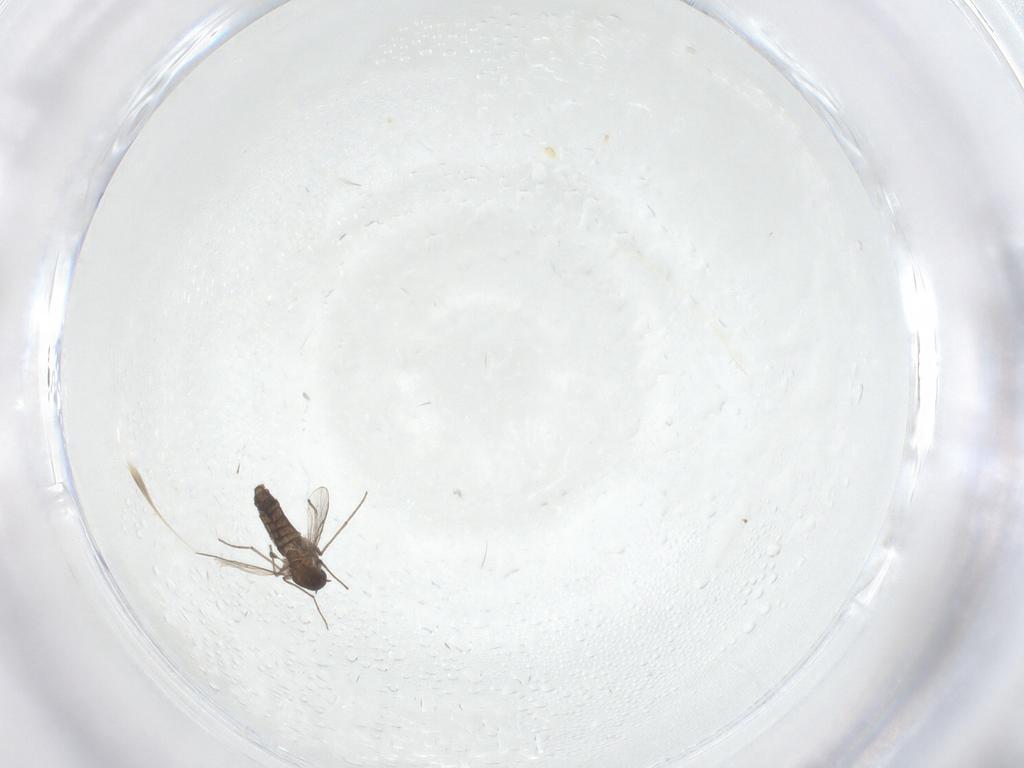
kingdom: Animalia
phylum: Arthropoda
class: Insecta
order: Diptera
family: Chironomidae
